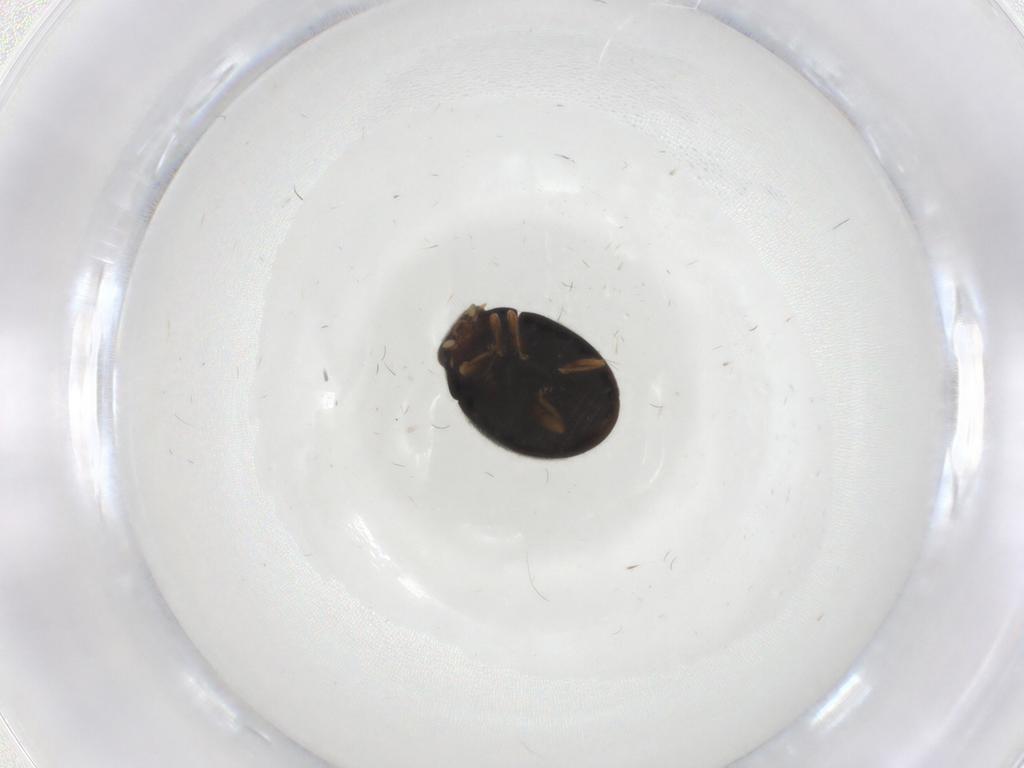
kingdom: Animalia
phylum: Arthropoda
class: Insecta
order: Coleoptera
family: Coccinellidae
